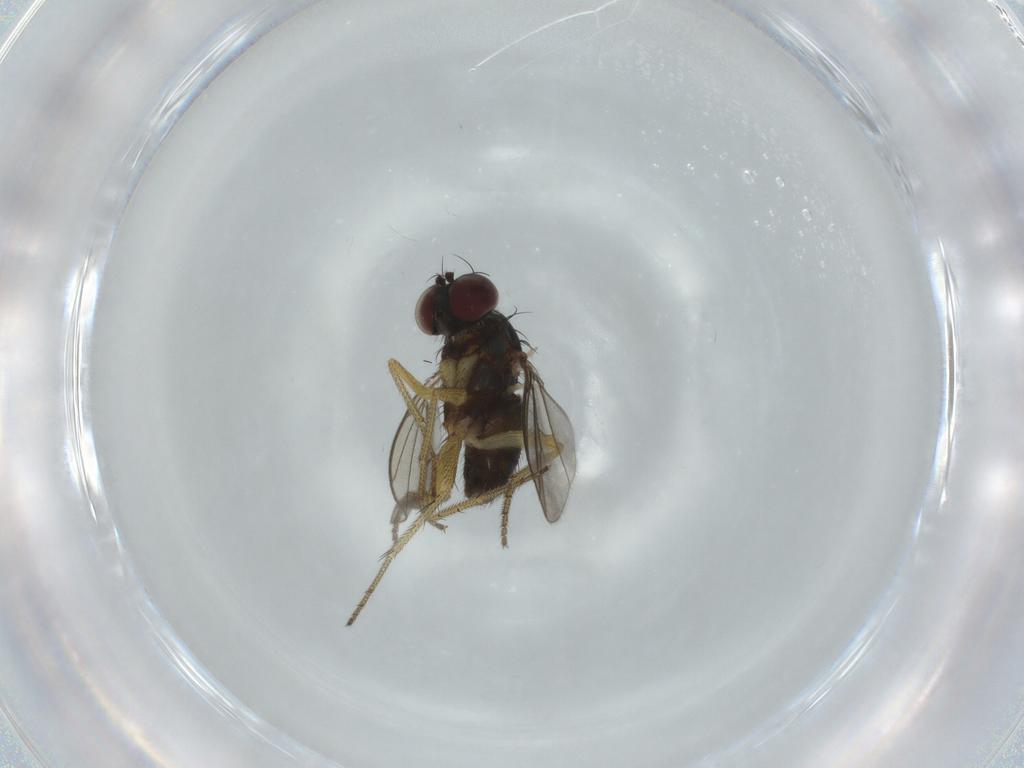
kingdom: Animalia
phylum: Arthropoda
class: Insecta
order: Diptera
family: Dolichopodidae
